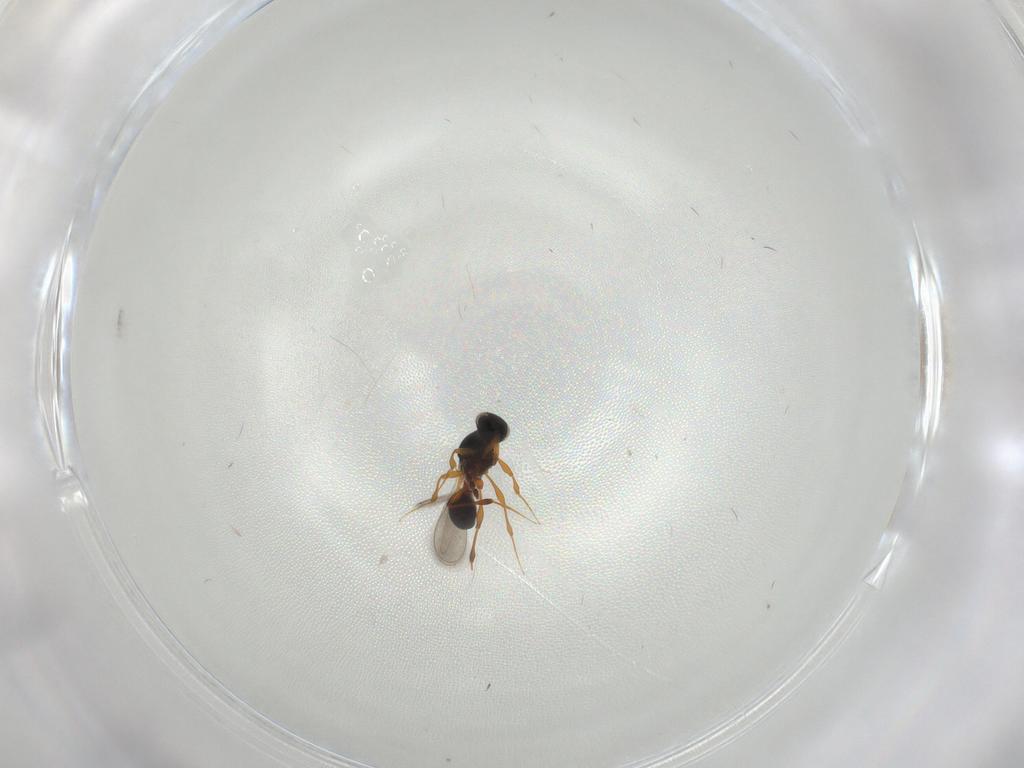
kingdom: Animalia
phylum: Arthropoda
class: Insecta
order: Hymenoptera
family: Platygastridae
